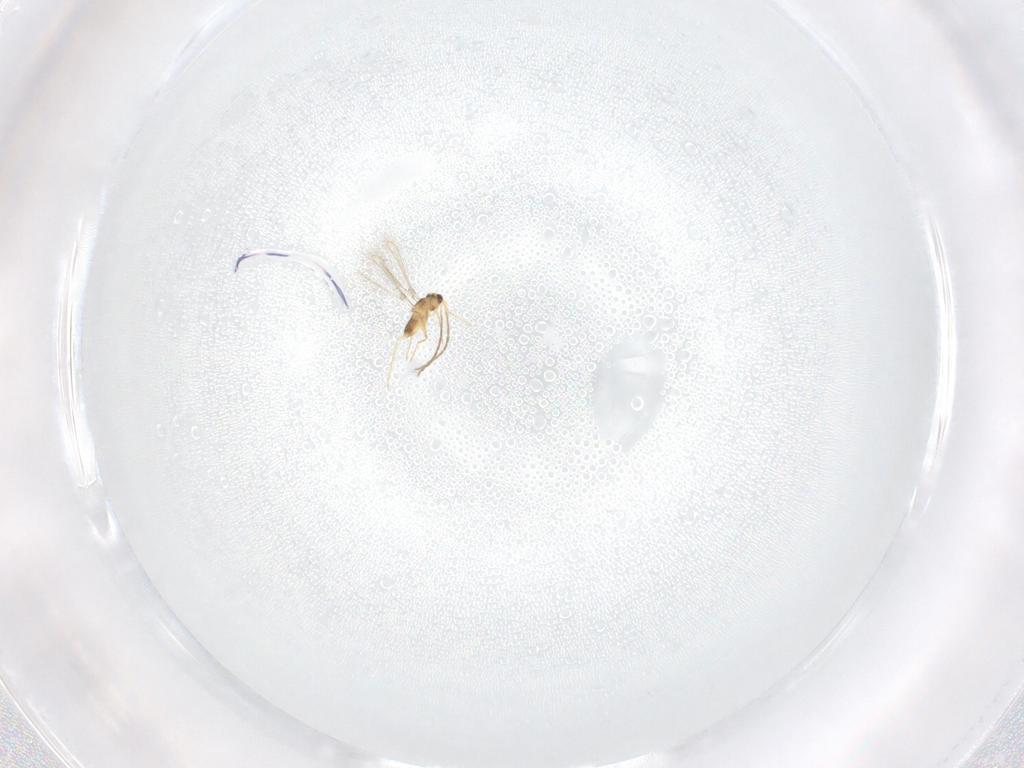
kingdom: Animalia
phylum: Arthropoda
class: Insecta
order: Hymenoptera
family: Mymaridae
